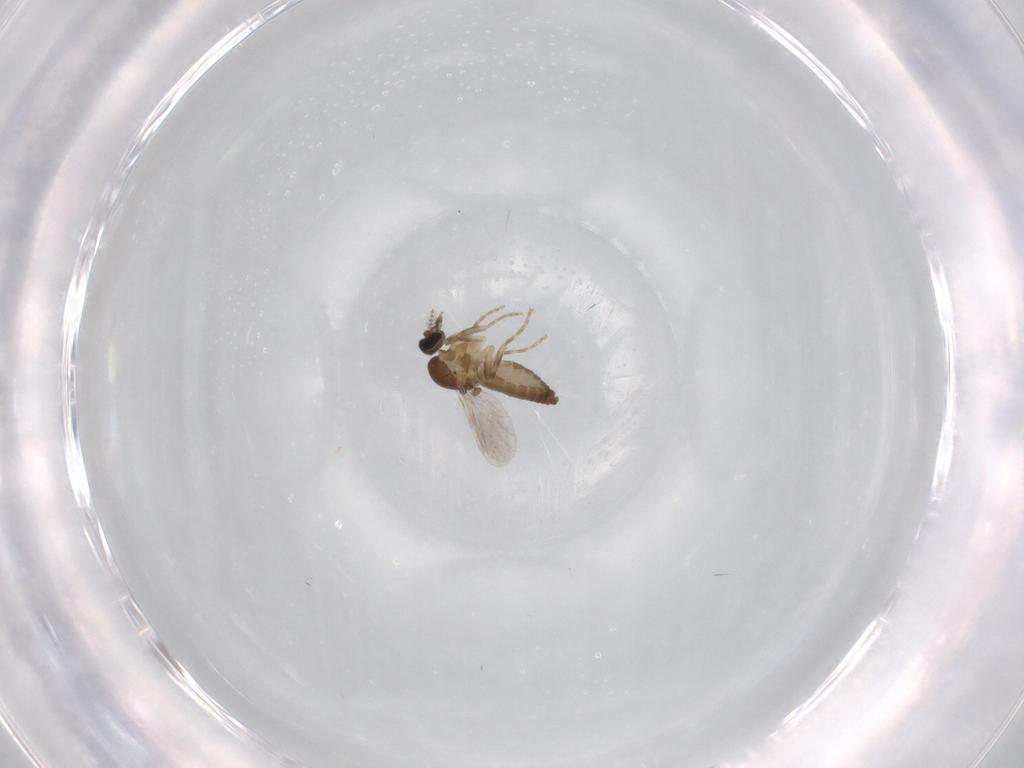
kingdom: Animalia
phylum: Arthropoda
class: Insecta
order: Diptera
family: Ceratopogonidae
